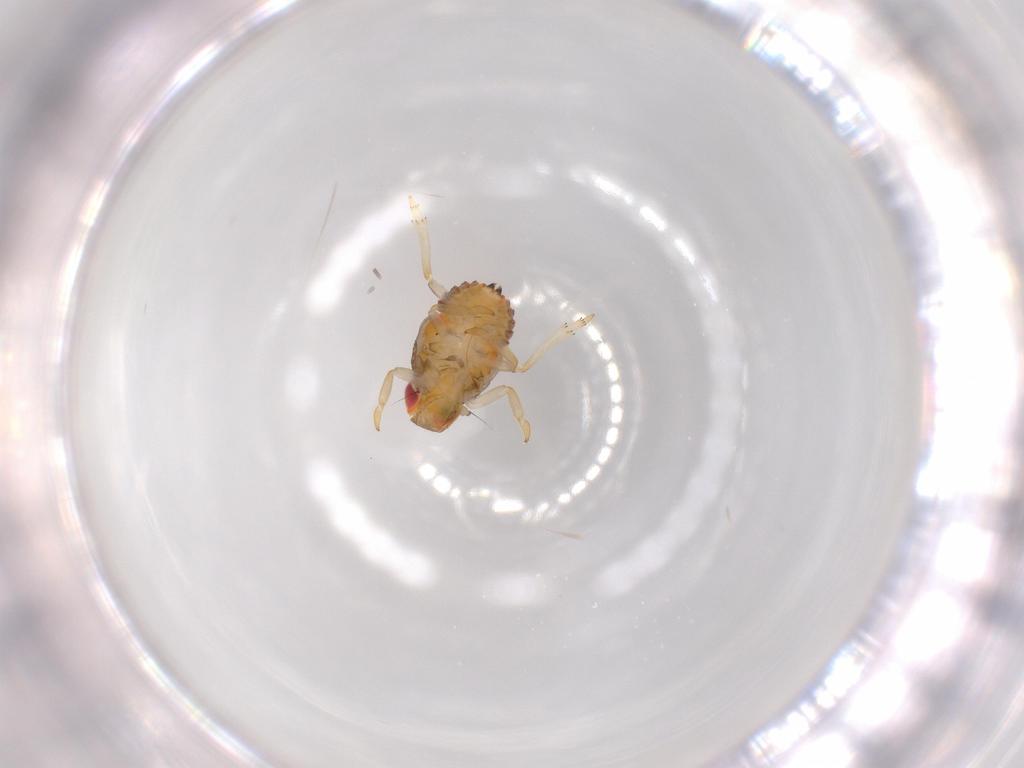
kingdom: Animalia
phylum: Arthropoda
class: Insecta
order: Hemiptera
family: Issidae
